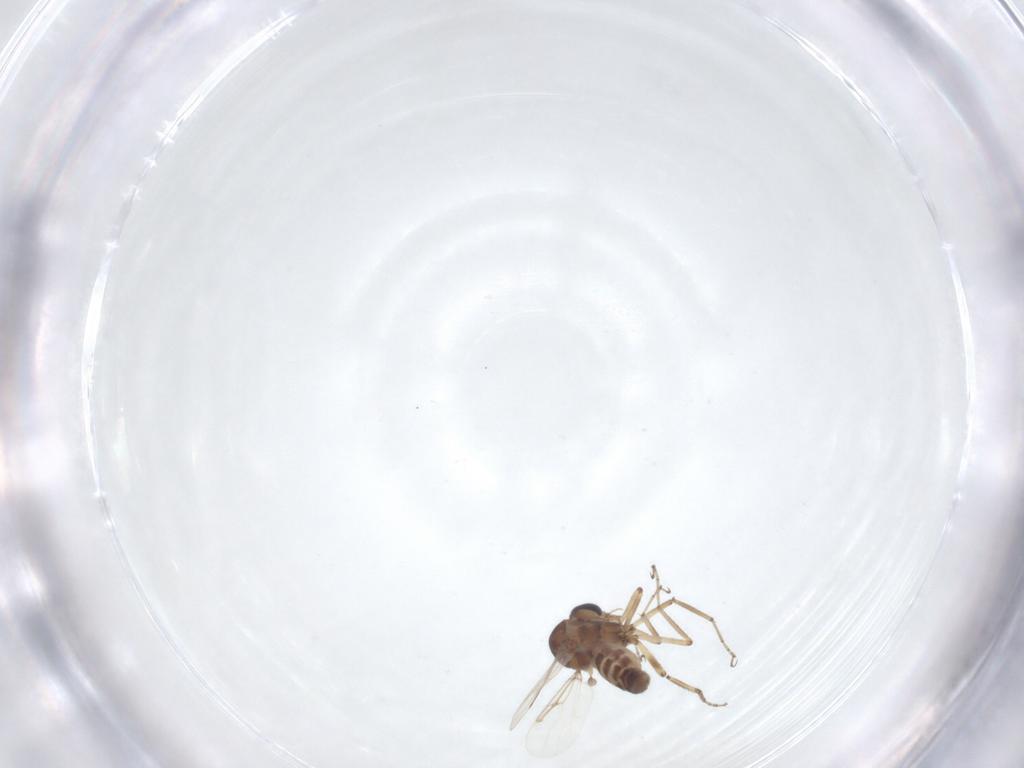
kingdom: Animalia
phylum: Arthropoda
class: Insecta
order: Diptera
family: Ceratopogonidae
